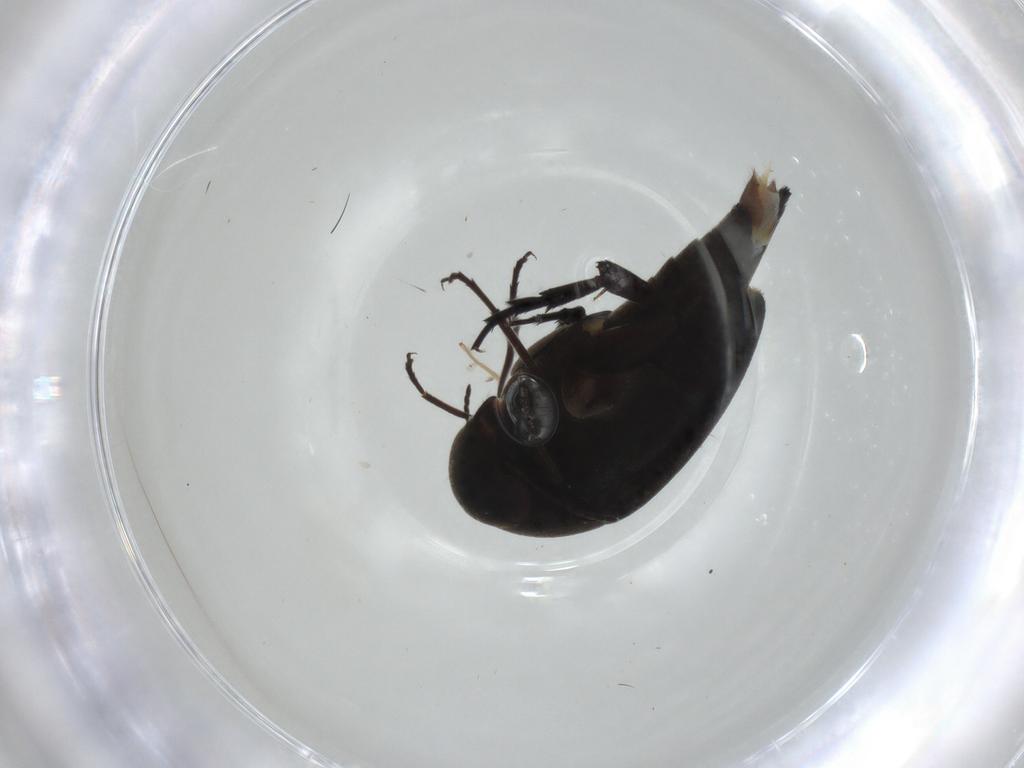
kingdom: Animalia
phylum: Arthropoda
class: Insecta
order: Coleoptera
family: Mordellidae
